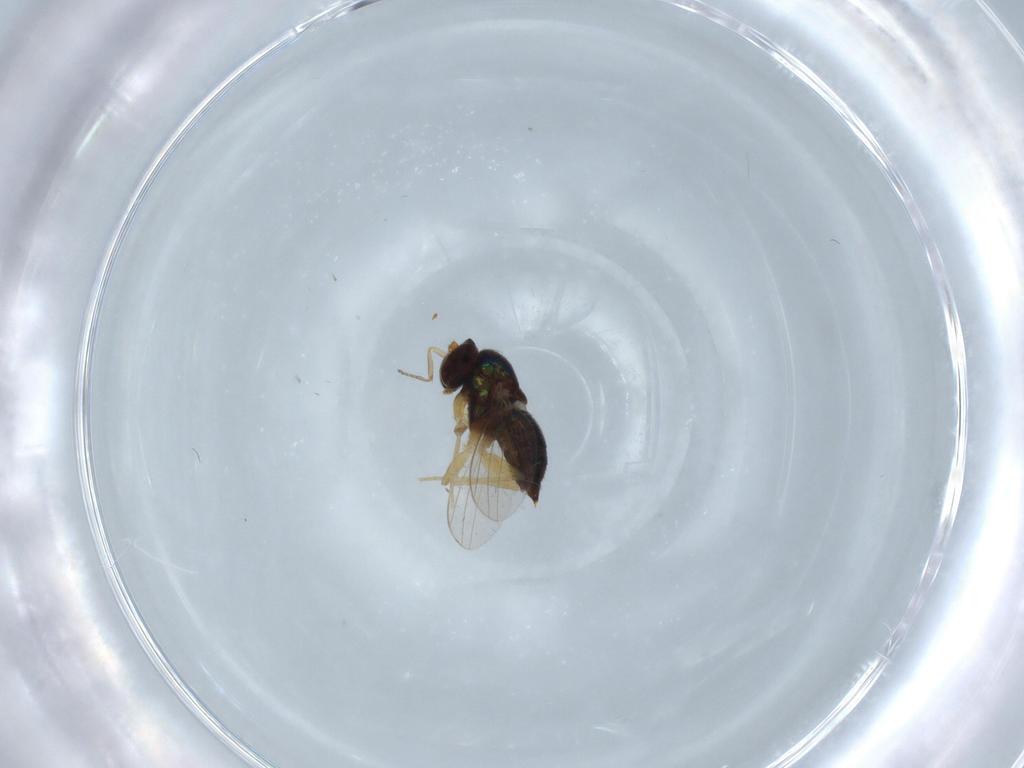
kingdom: Animalia
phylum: Arthropoda
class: Insecta
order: Diptera
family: Dolichopodidae
